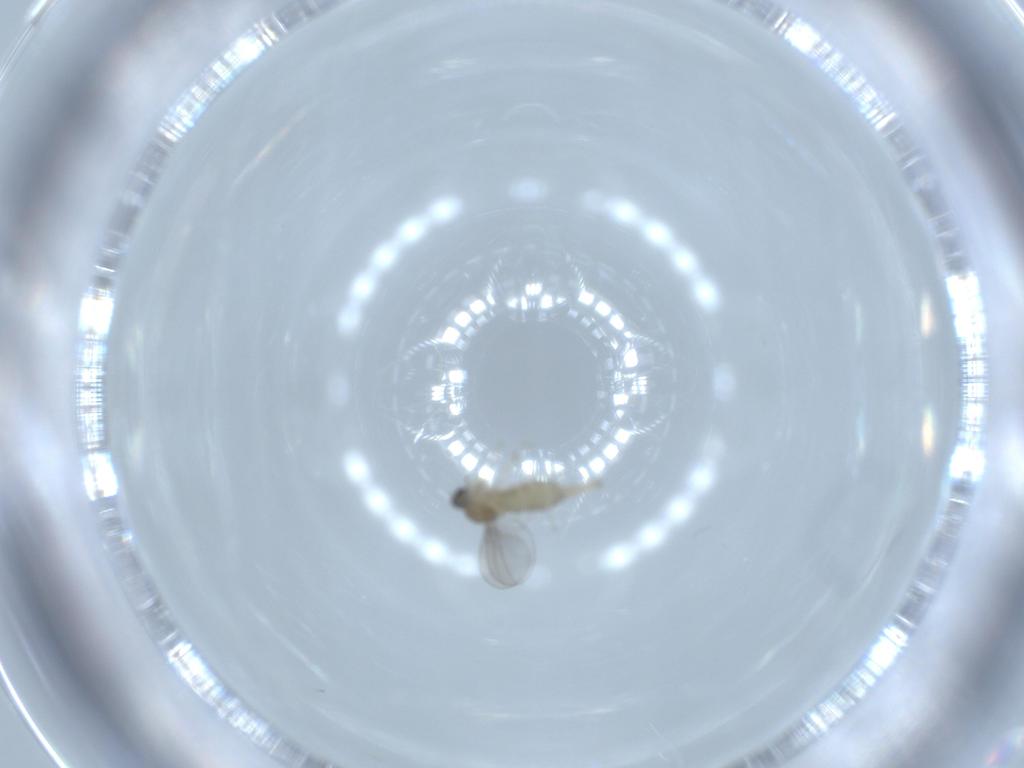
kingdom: Animalia
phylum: Arthropoda
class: Insecta
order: Diptera
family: Cecidomyiidae
